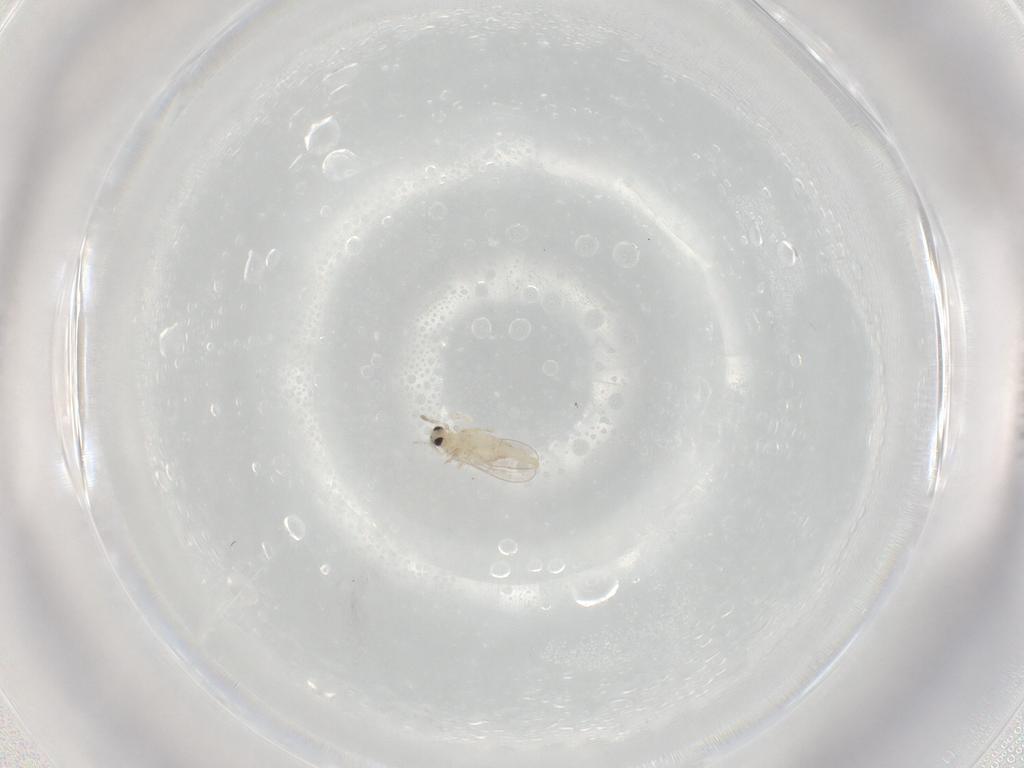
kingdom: Animalia
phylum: Arthropoda
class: Insecta
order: Diptera
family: Cecidomyiidae
